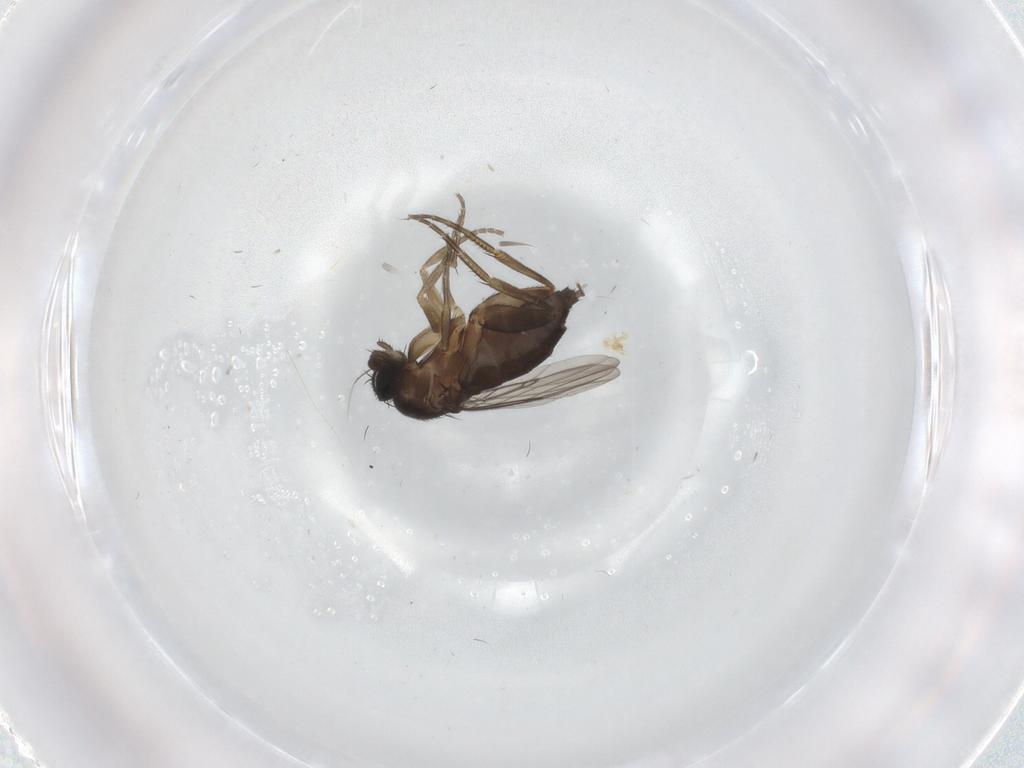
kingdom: Animalia
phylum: Arthropoda
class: Insecta
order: Diptera
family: Phoridae
